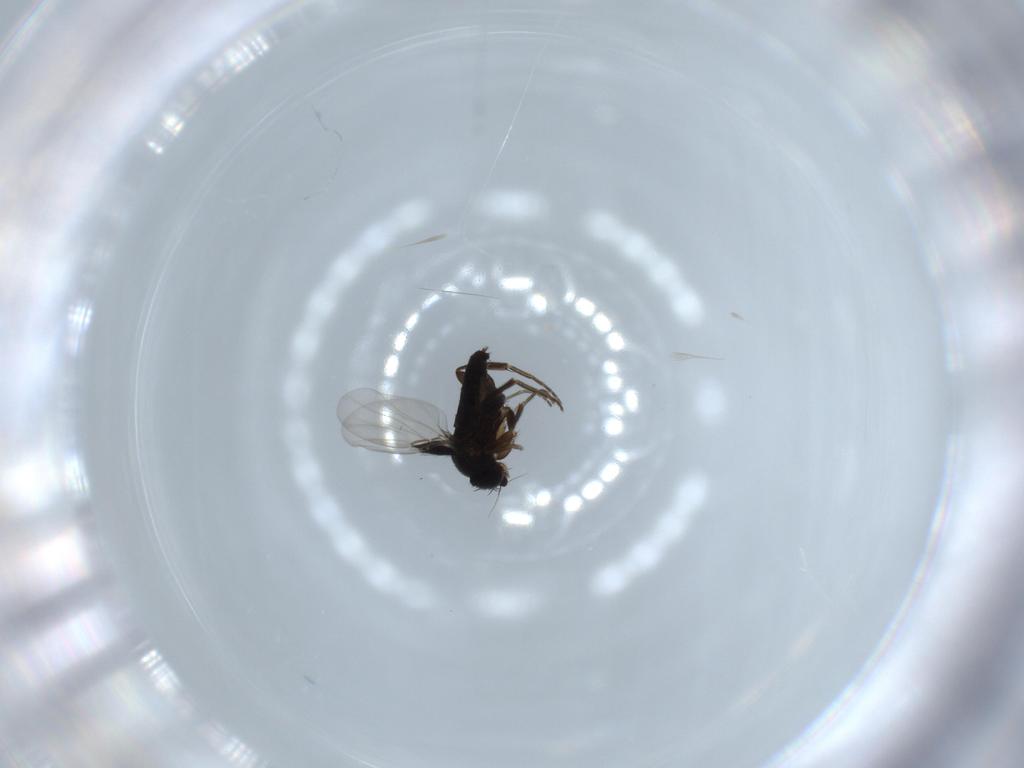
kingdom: Animalia
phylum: Arthropoda
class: Insecta
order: Diptera
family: Phoridae
